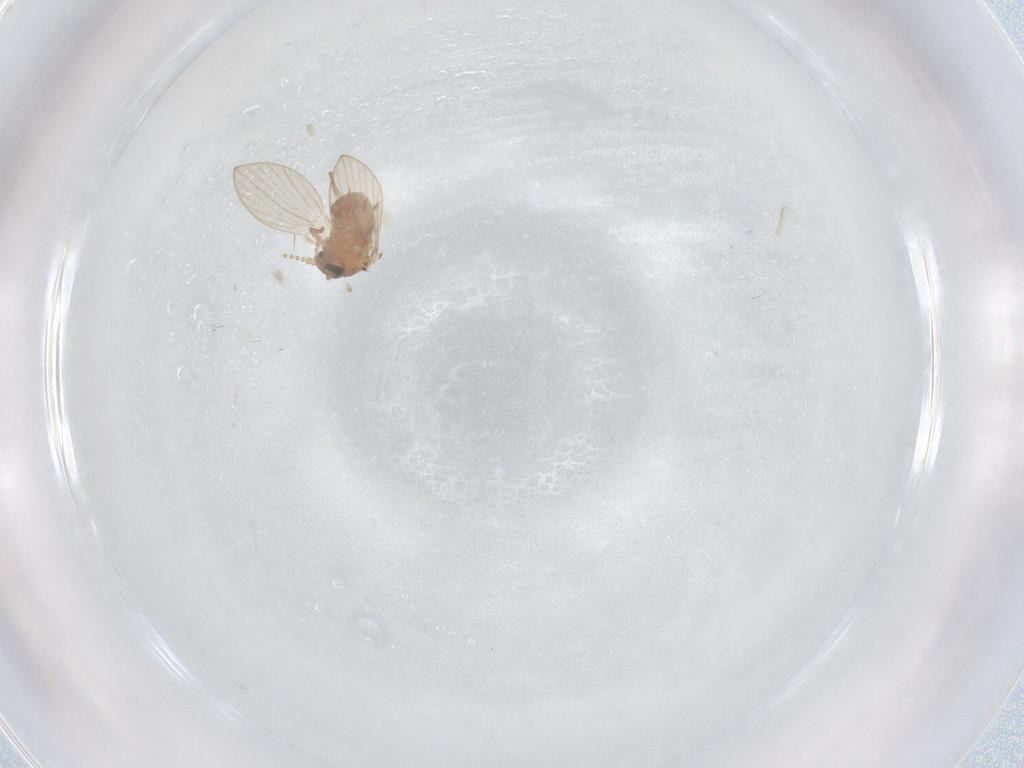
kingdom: Animalia
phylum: Arthropoda
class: Insecta
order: Diptera
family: Psychodidae
